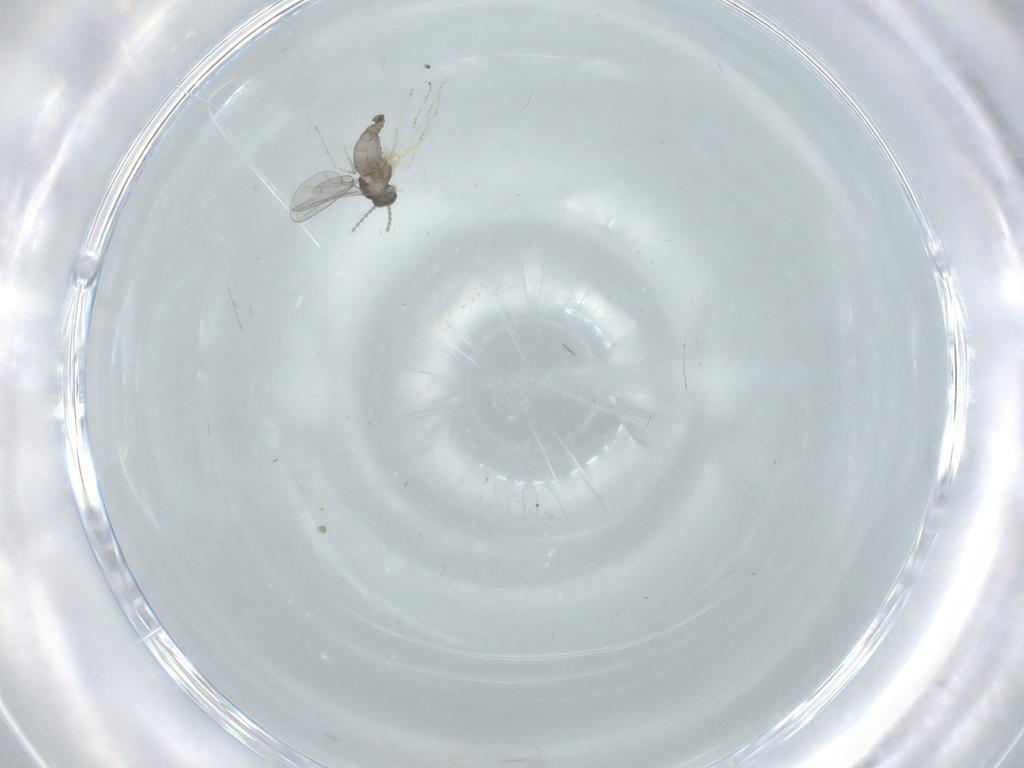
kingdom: Animalia
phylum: Arthropoda
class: Insecta
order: Diptera
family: Cecidomyiidae
